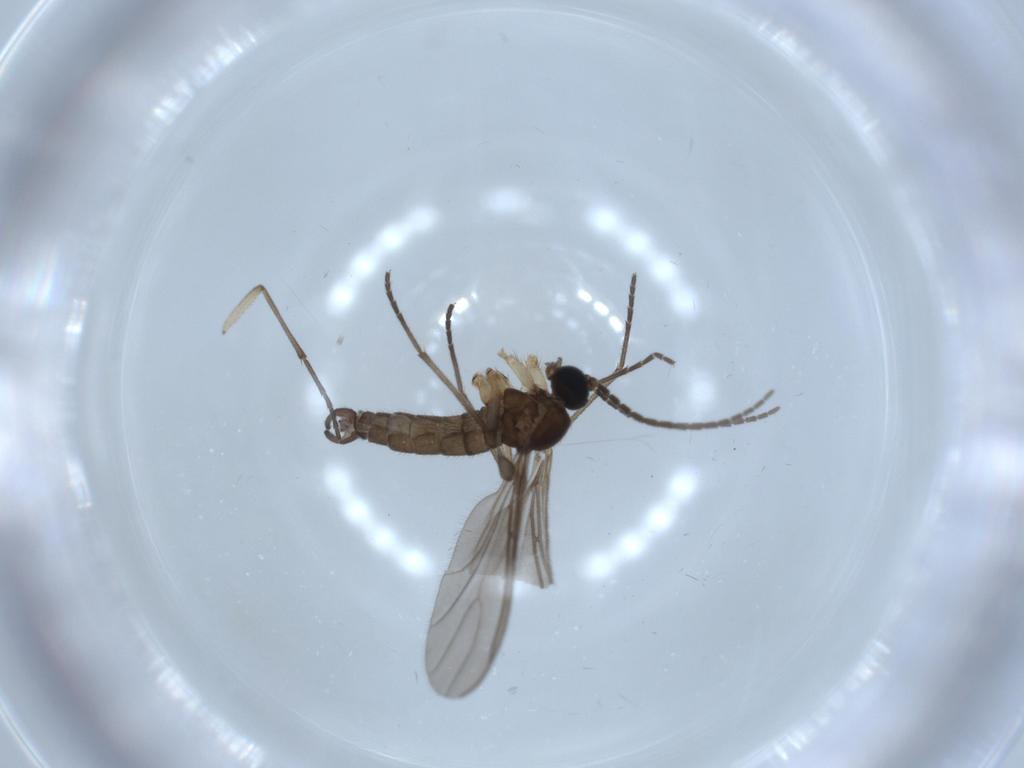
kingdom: Animalia
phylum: Arthropoda
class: Insecta
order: Diptera
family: Sciaridae
